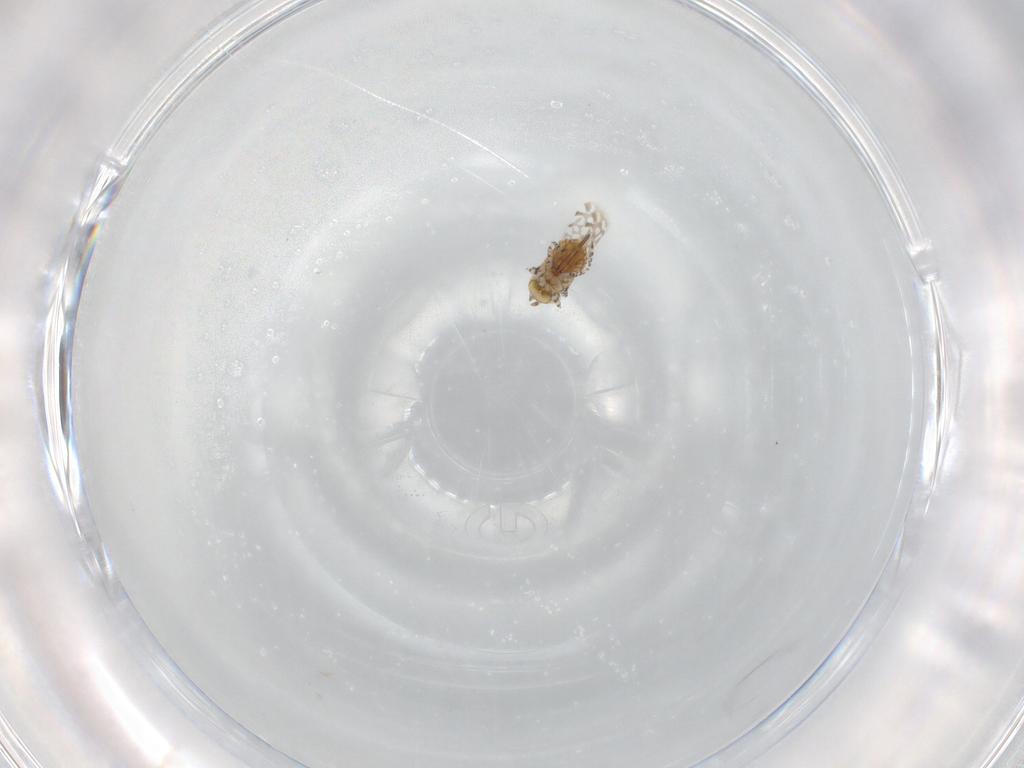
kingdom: Animalia
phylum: Arthropoda
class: Insecta
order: Hymenoptera
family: Aphelinidae
